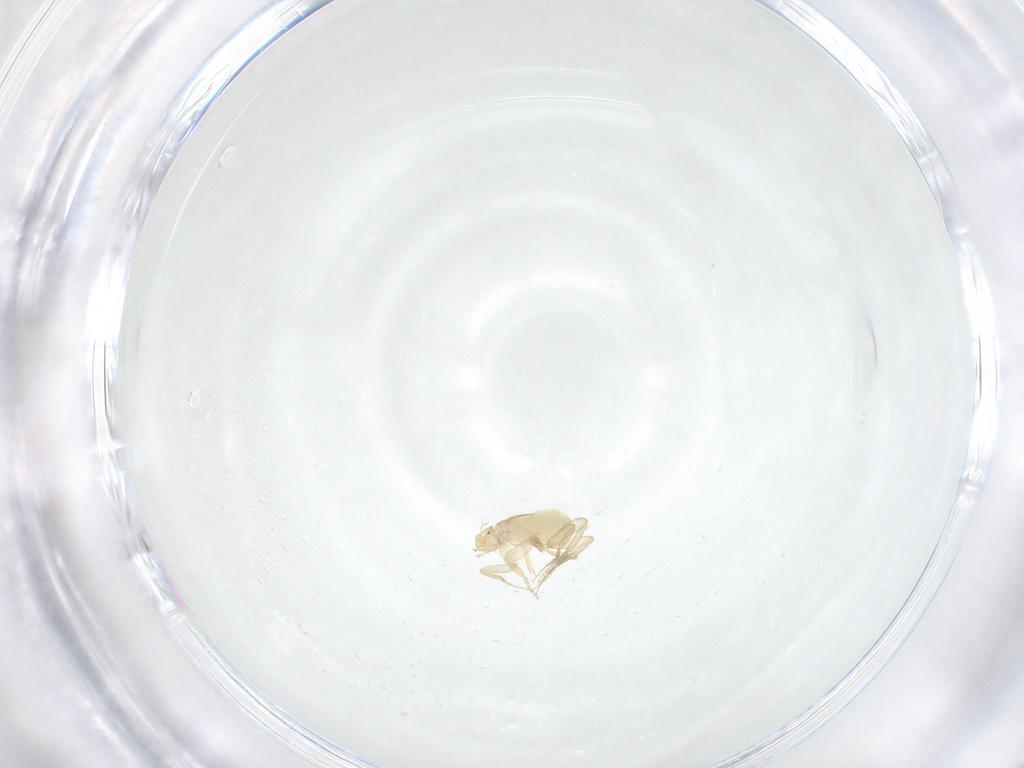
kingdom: Animalia
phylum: Arthropoda
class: Insecta
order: Diptera
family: Phoridae
